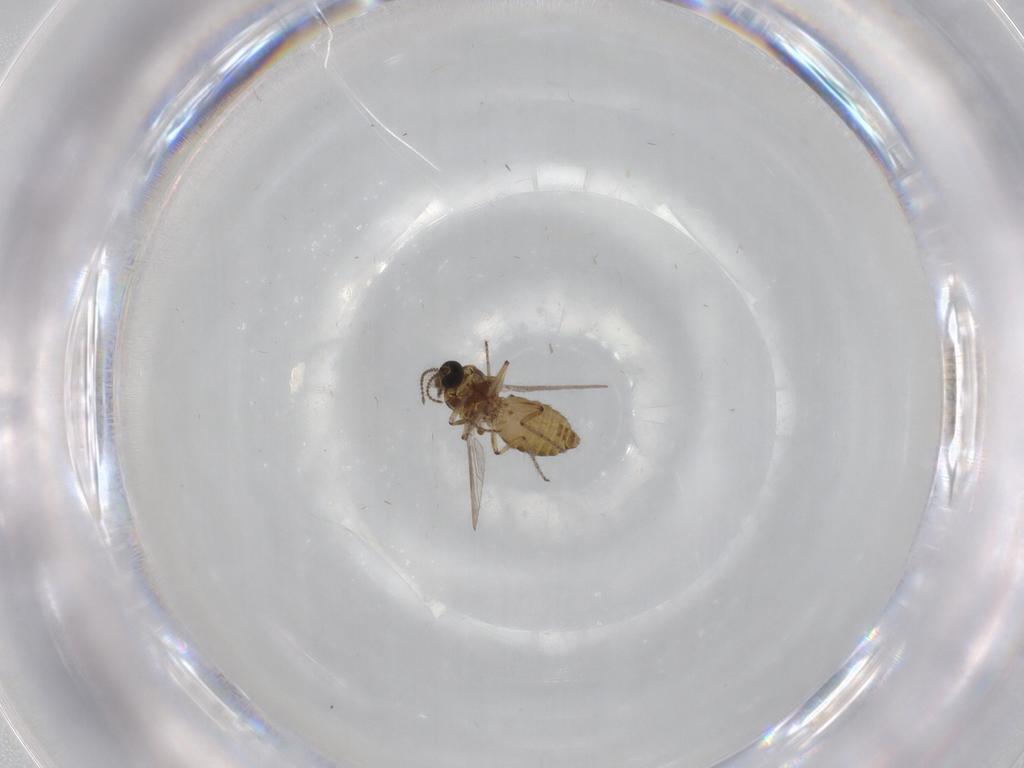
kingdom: Animalia
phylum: Arthropoda
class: Insecta
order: Diptera
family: Ceratopogonidae
